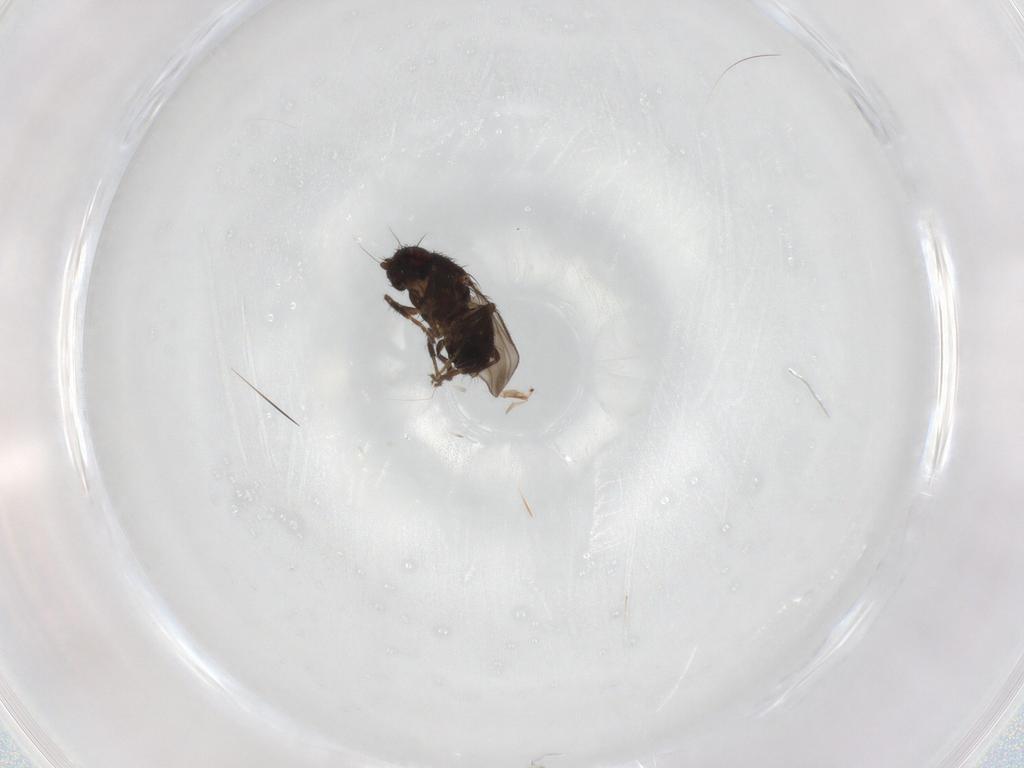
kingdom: Animalia
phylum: Arthropoda
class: Insecta
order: Diptera
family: Sphaeroceridae
